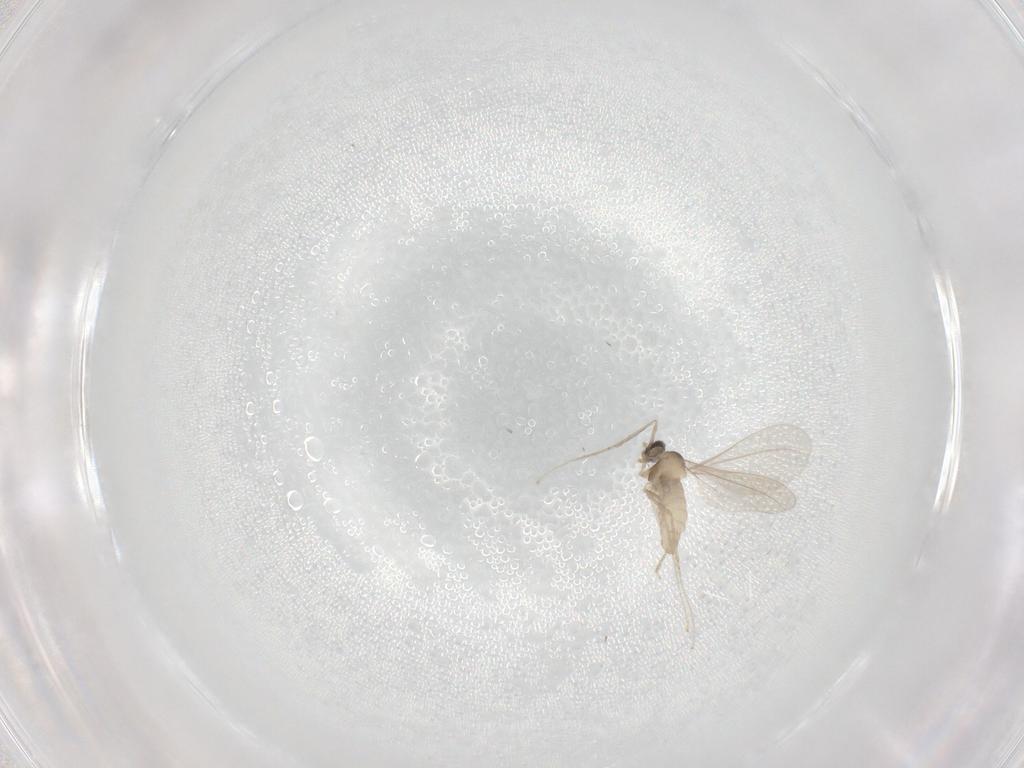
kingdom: Animalia
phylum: Arthropoda
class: Insecta
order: Diptera
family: Cecidomyiidae
